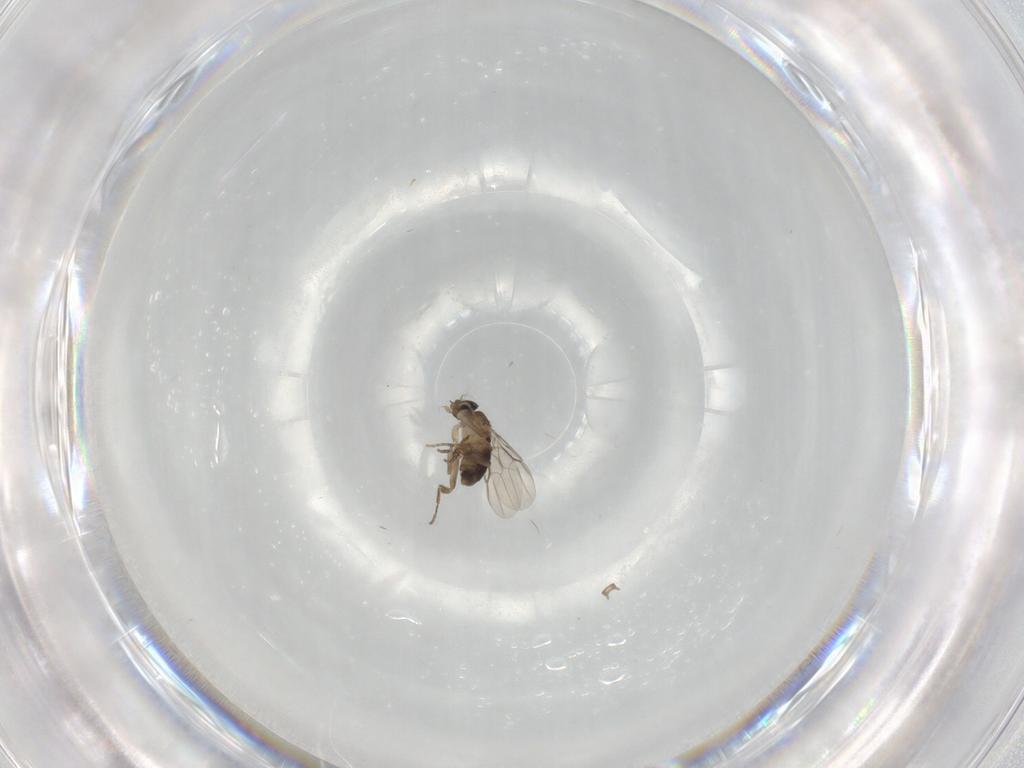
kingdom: Animalia
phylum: Arthropoda
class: Insecta
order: Diptera
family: Phoridae
